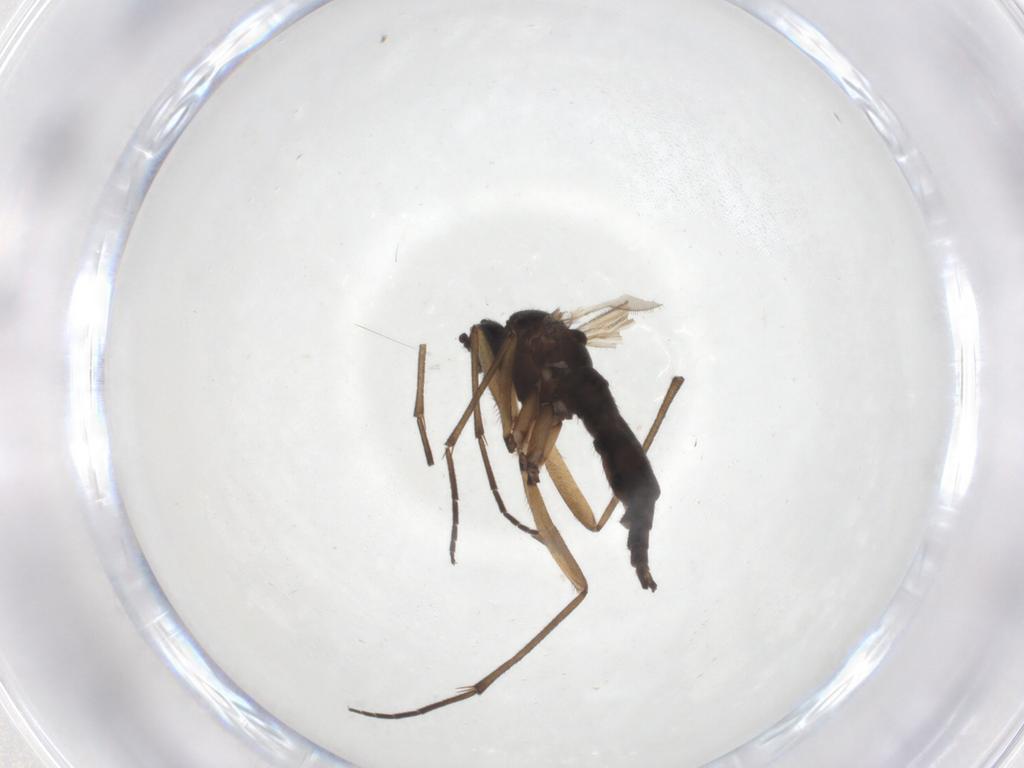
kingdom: Animalia
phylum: Arthropoda
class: Insecta
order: Diptera
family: Sciaridae
